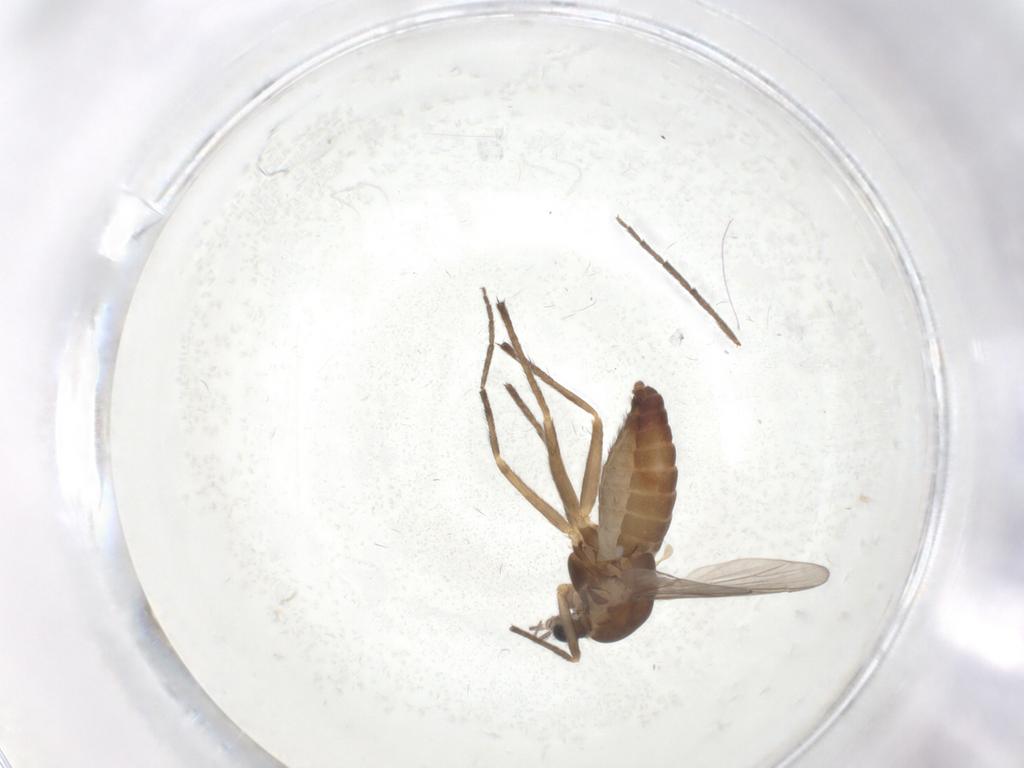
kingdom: Animalia
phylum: Arthropoda
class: Insecta
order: Diptera
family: Chironomidae
